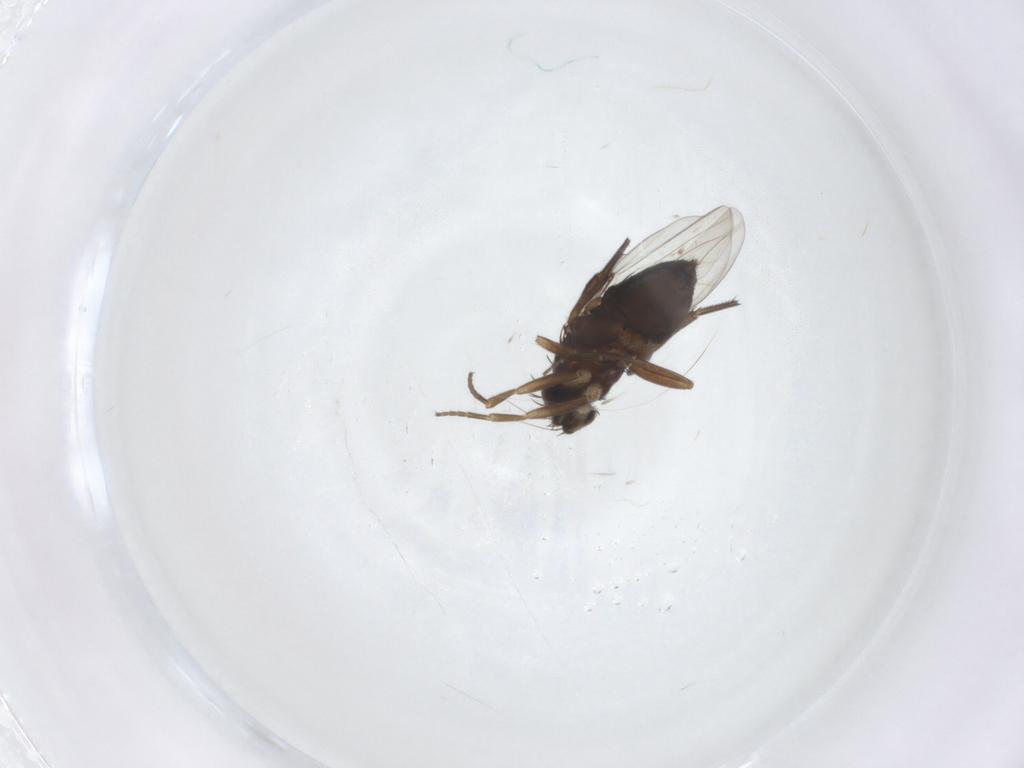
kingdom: Animalia
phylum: Arthropoda
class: Insecta
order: Diptera
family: Phoridae
